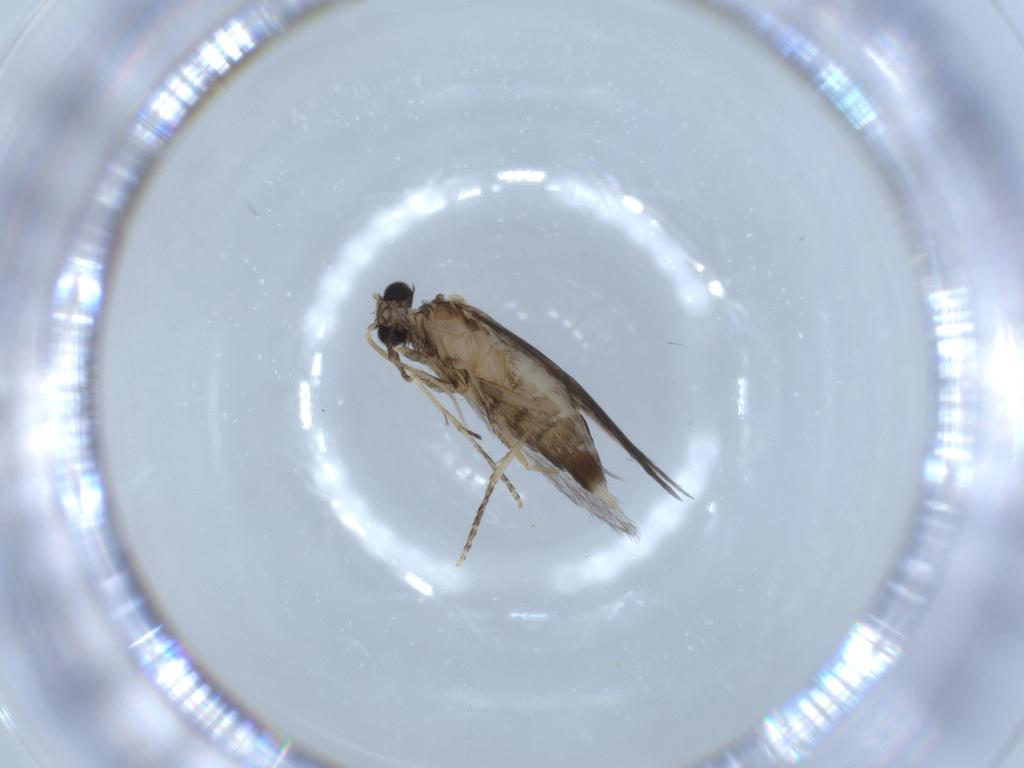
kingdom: Animalia
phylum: Arthropoda
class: Insecta
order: Trichoptera
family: Hydroptilidae
